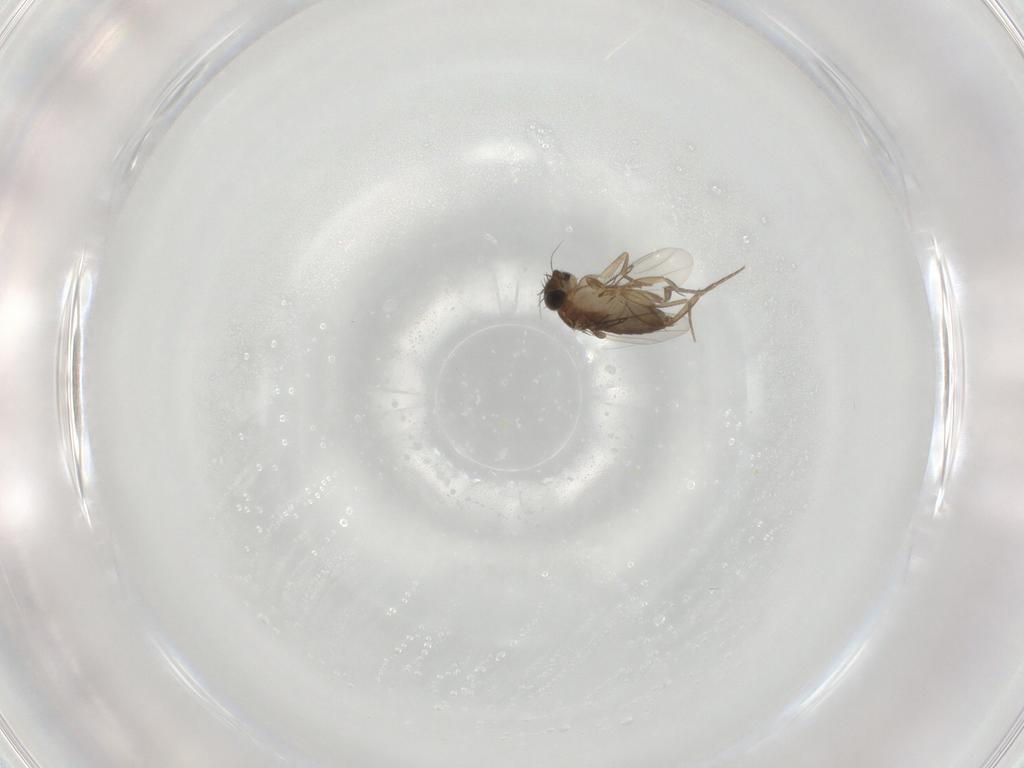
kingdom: Animalia
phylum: Arthropoda
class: Insecta
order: Diptera
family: Phoridae
